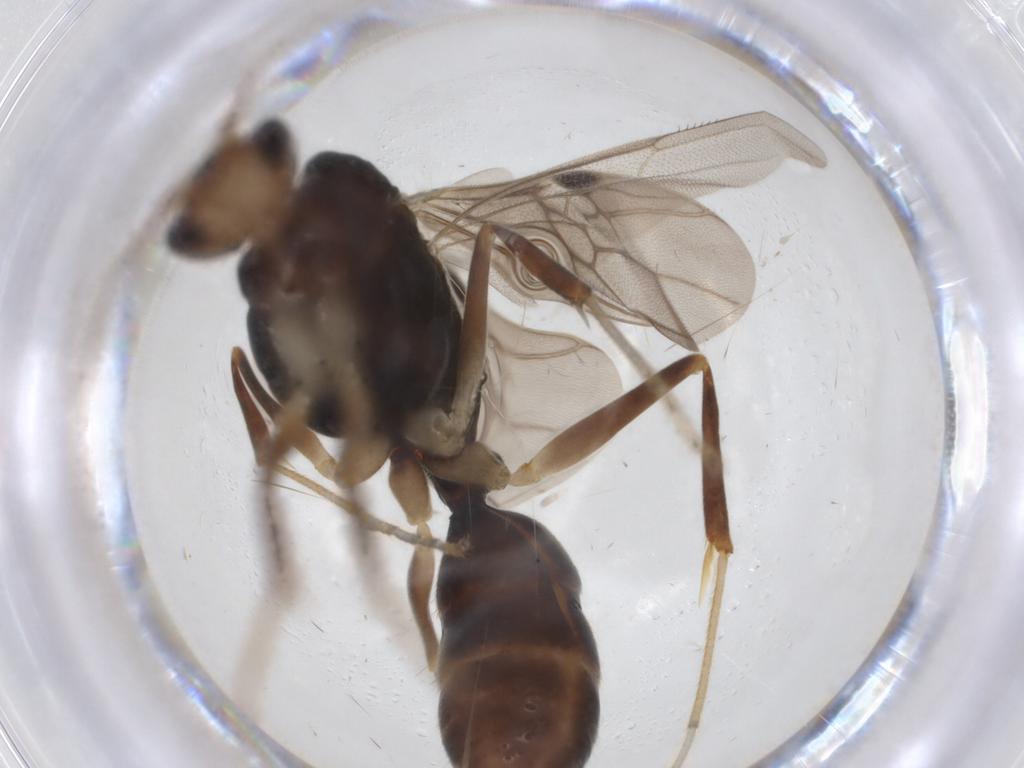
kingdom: Animalia
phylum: Arthropoda
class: Insecta
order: Hymenoptera
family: Formicidae
